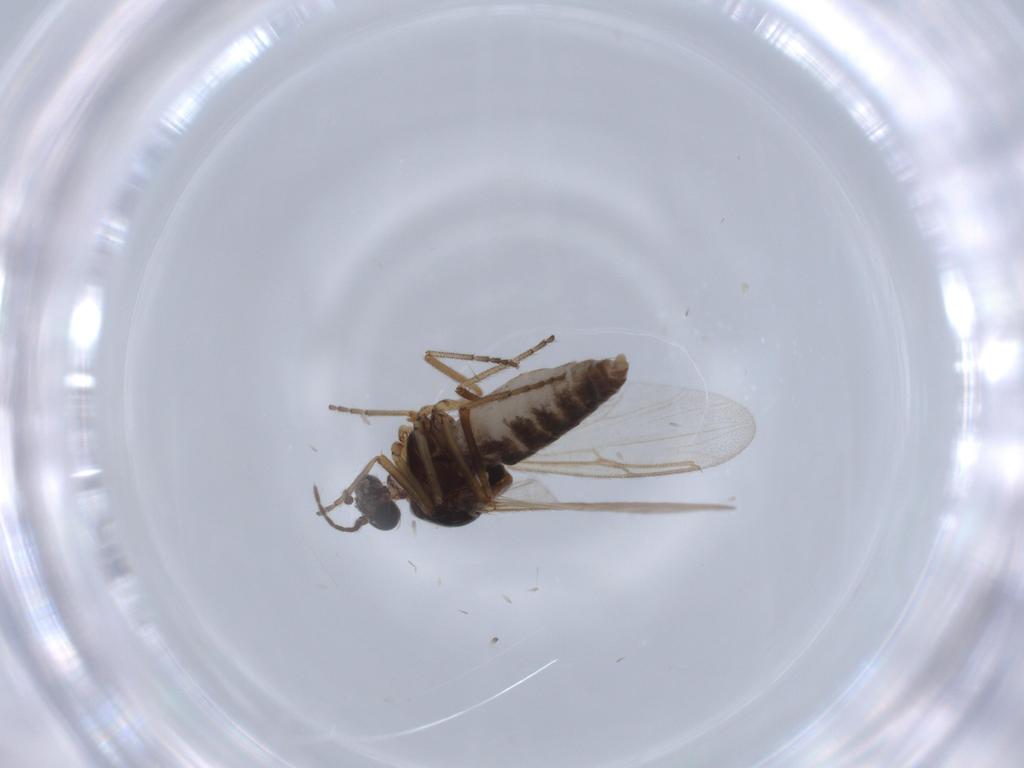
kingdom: Animalia
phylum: Arthropoda
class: Insecta
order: Diptera
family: Ceratopogonidae
